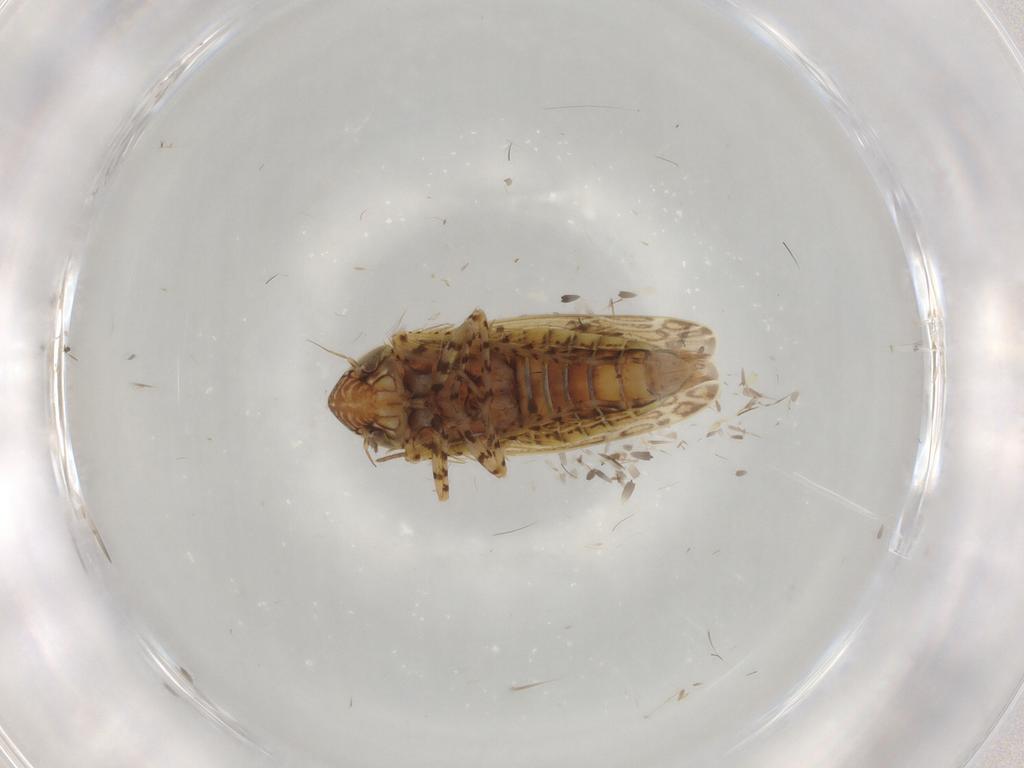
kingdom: Animalia
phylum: Arthropoda
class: Insecta
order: Hemiptera
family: Cicadellidae
